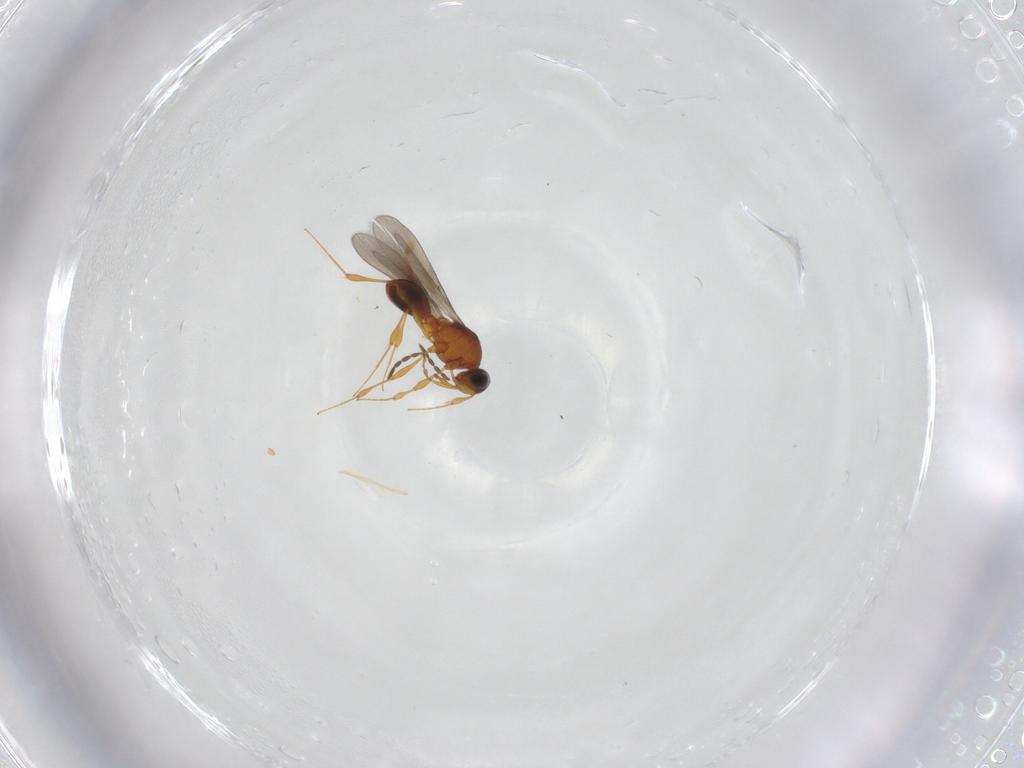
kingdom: Animalia
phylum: Arthropoda
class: Insecta
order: Hymenoptera
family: Platygastridae
